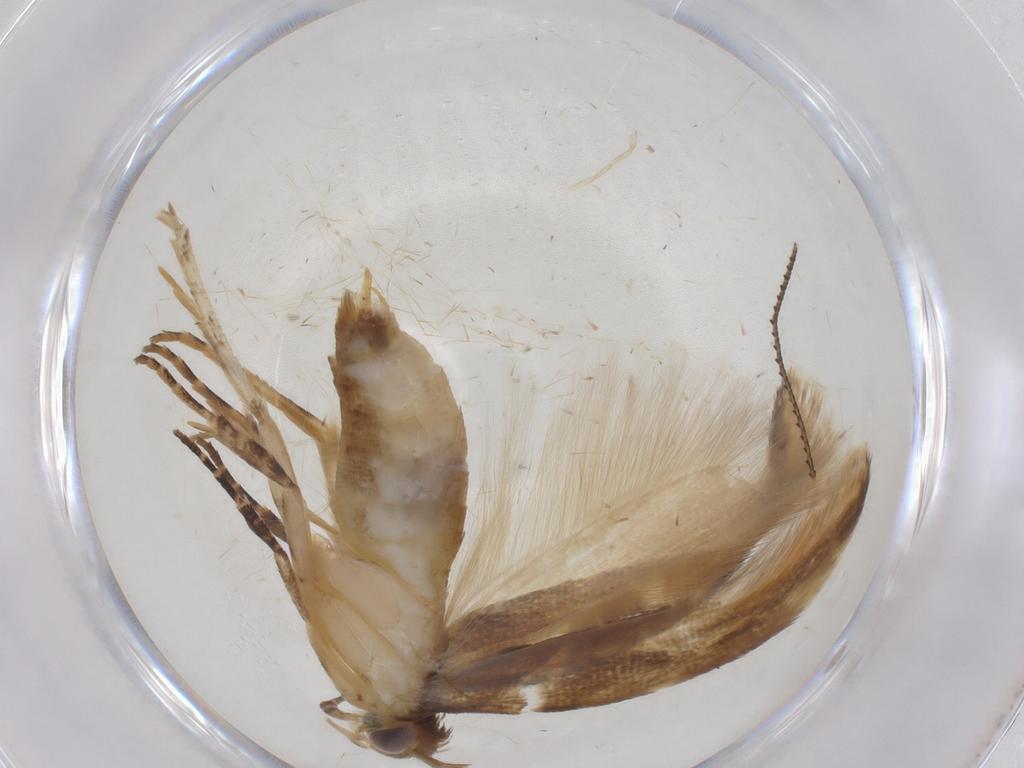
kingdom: Animalia
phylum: Arthropoda
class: Insecta
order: Lepidoptera
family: Gelechiidae
